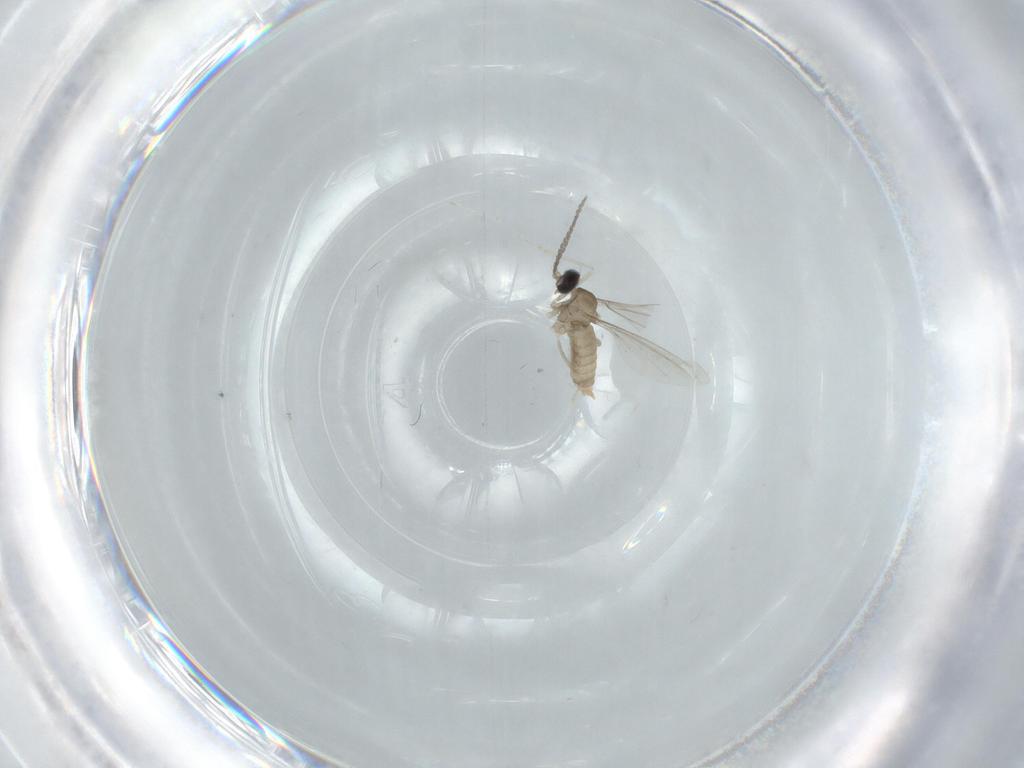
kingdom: Animalia
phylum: Arthropoda
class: Insecta
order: Diptera
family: Cecidomyiidae
